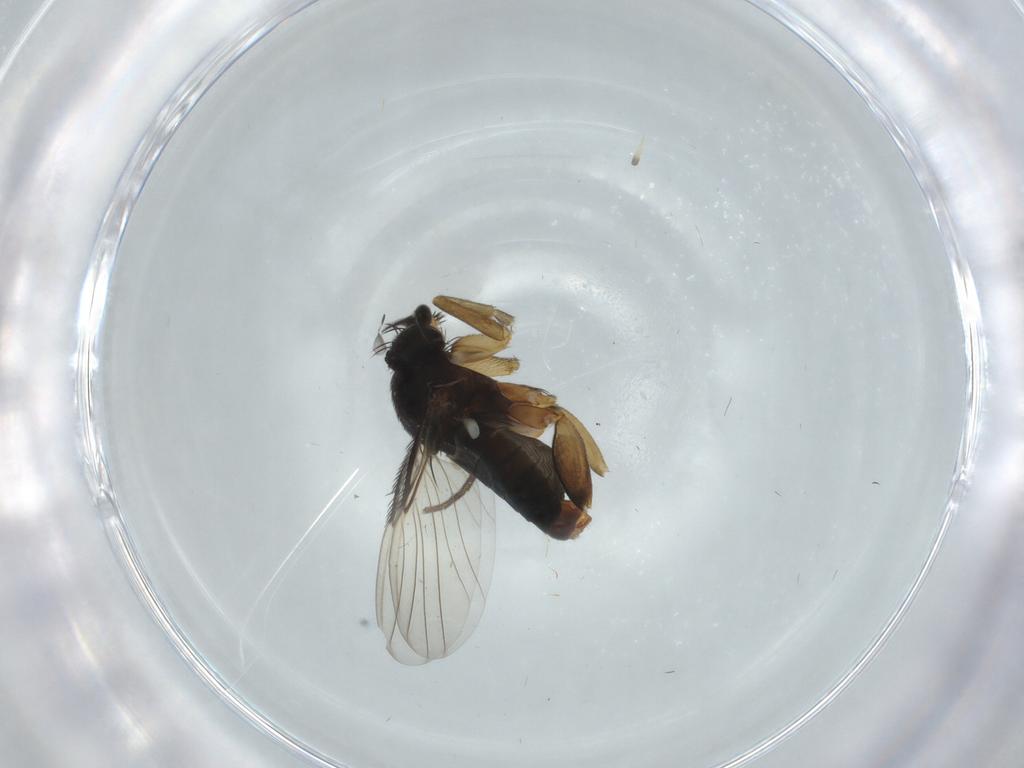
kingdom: Animalia
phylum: Arthropoda
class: Insecta
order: Diptera
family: Phoridae
